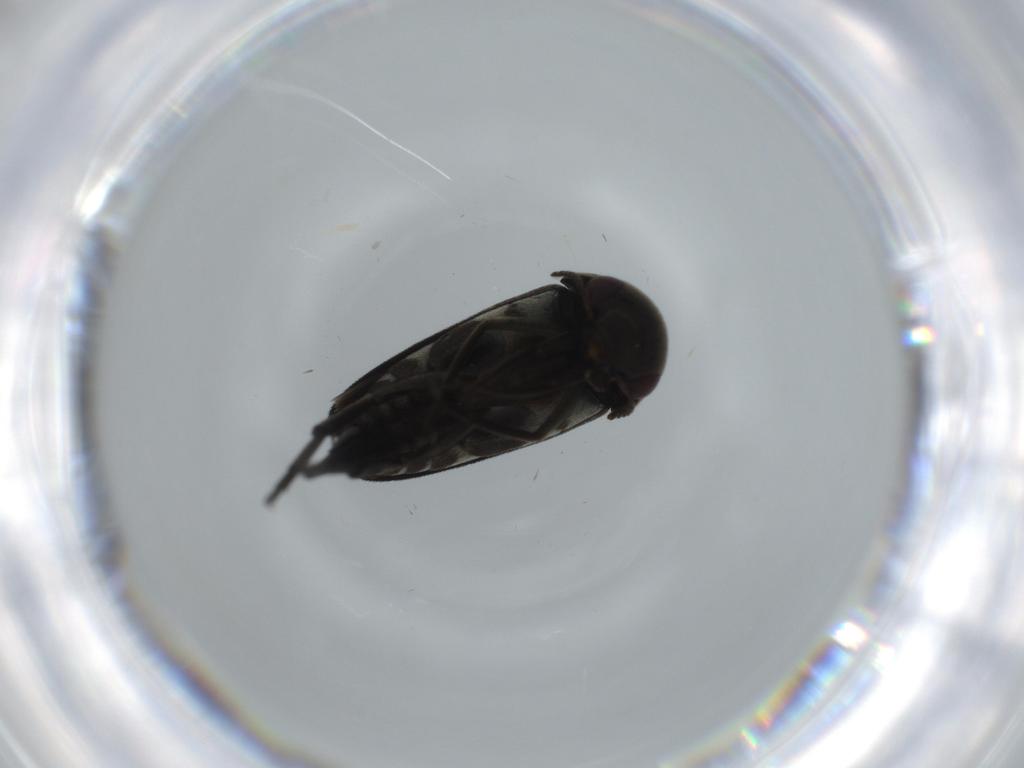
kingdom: Animalia
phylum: Arthropoda
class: Insecta
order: Coleoptera
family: Mordellidae
